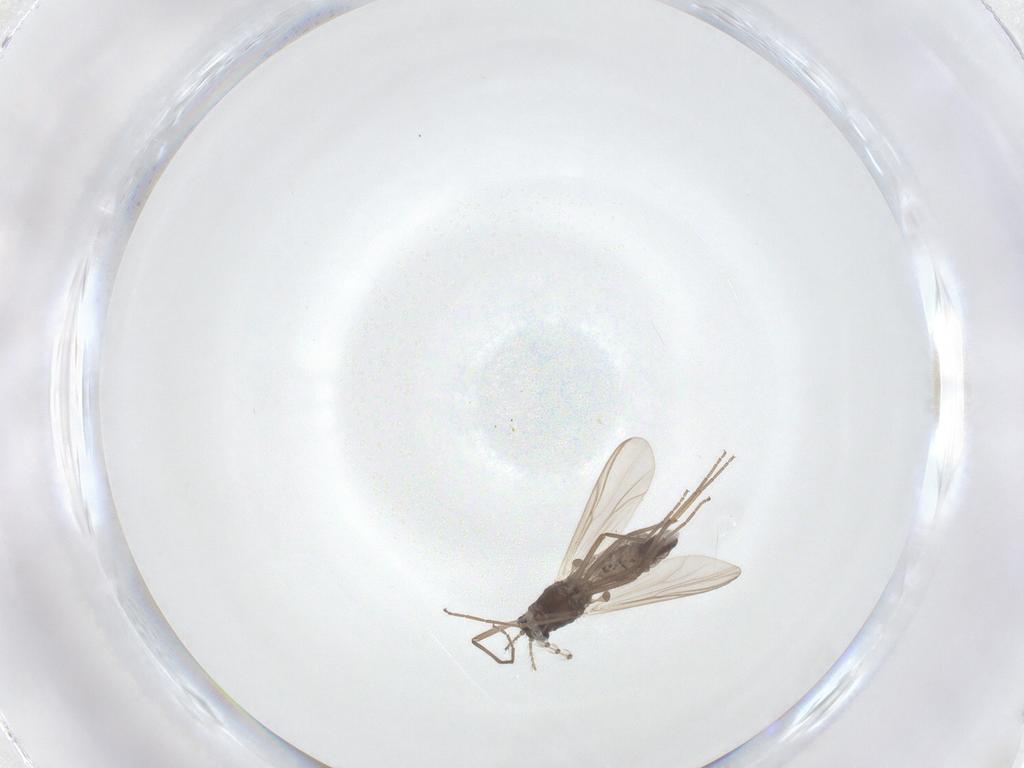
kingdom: Animalia
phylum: Arthropoda
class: Insecta
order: Diptera
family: Chironomidae
